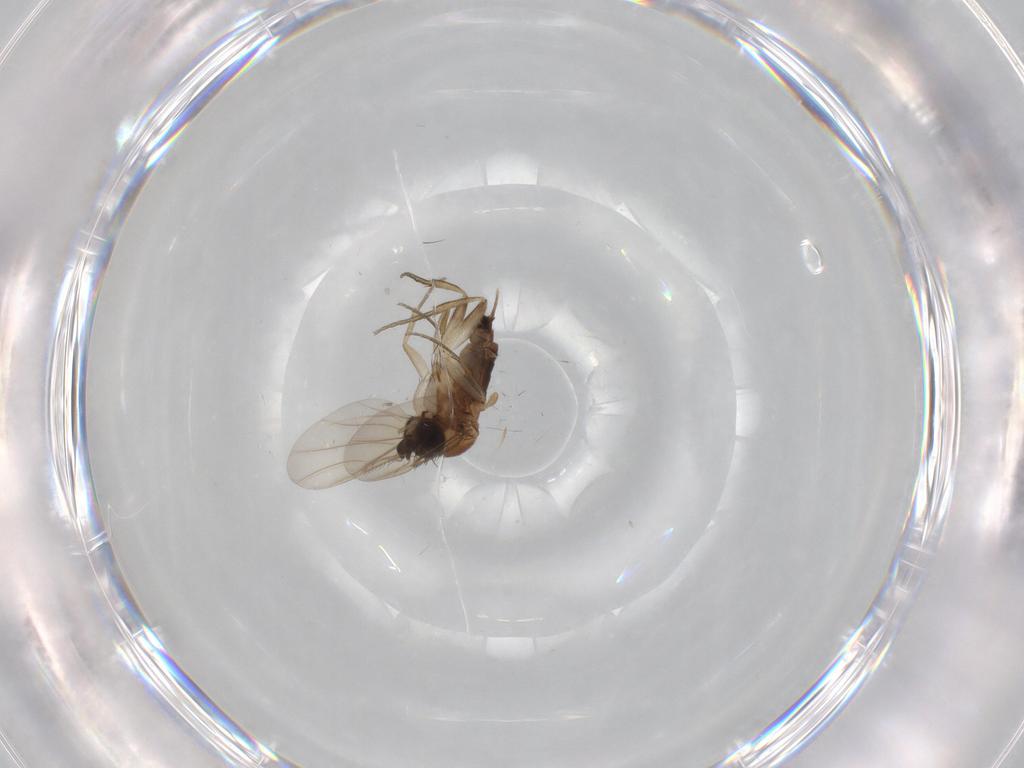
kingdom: Animalia
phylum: Arthropoda
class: Insecta
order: Diptera
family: Phoridae
